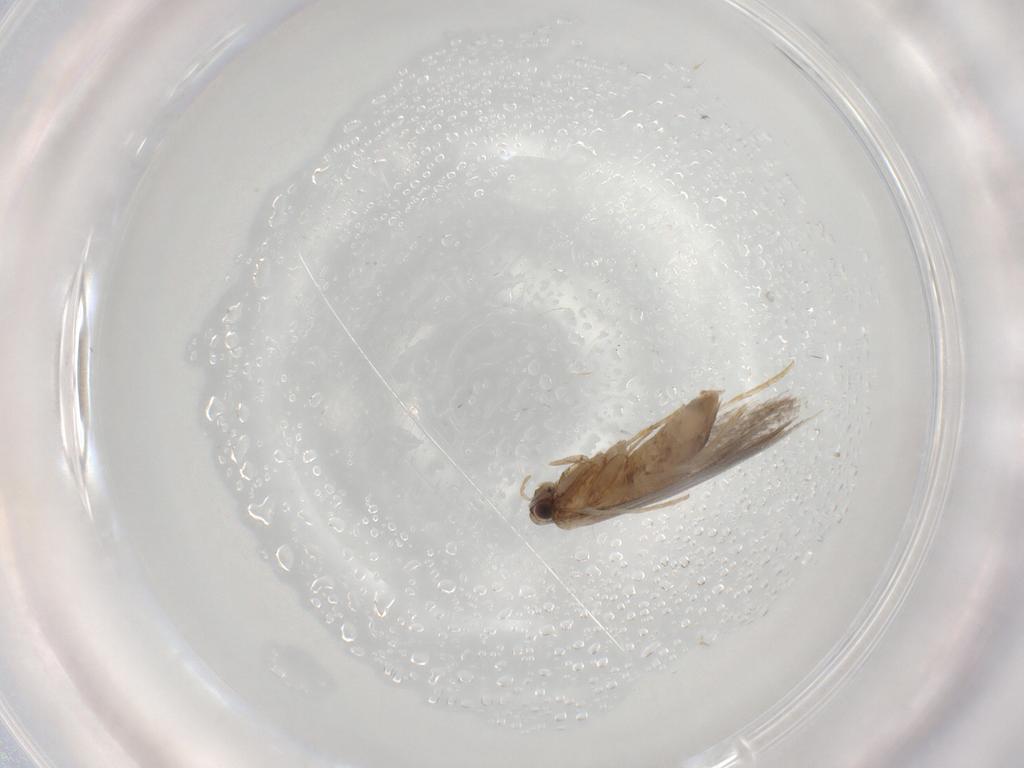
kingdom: Animalia
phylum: Arthropoda
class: Insecta
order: Lepidoptera
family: Tineidae
